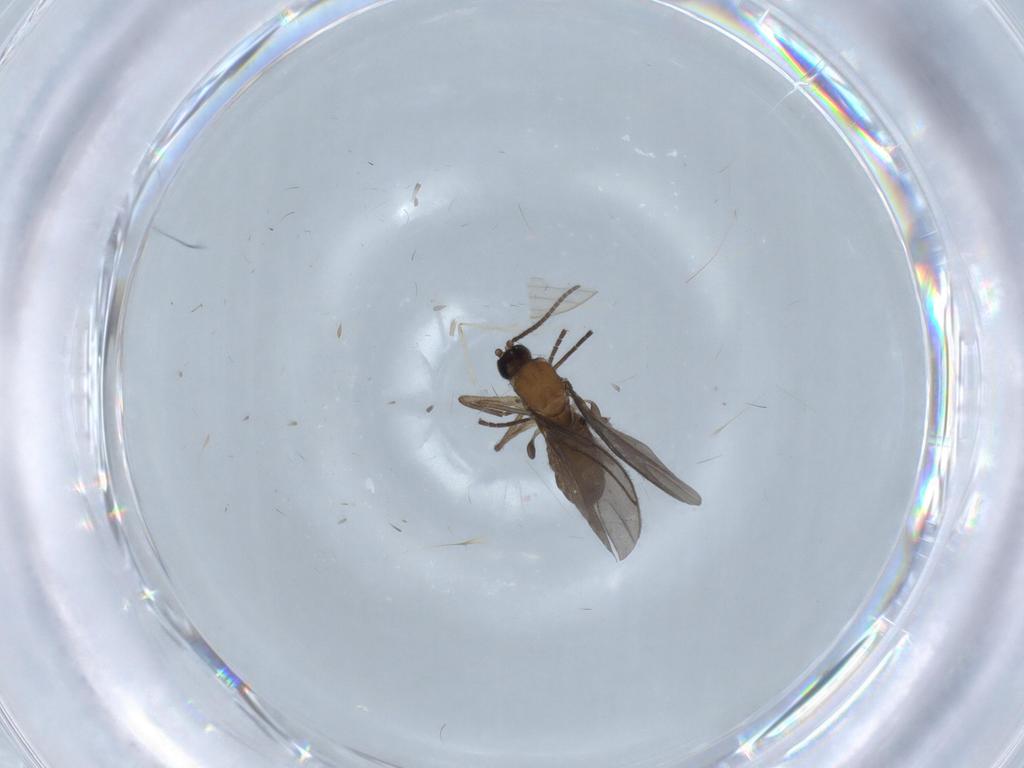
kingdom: Animalia
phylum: Arthropoda
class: Insecta
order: Diptera
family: Sciaridae
